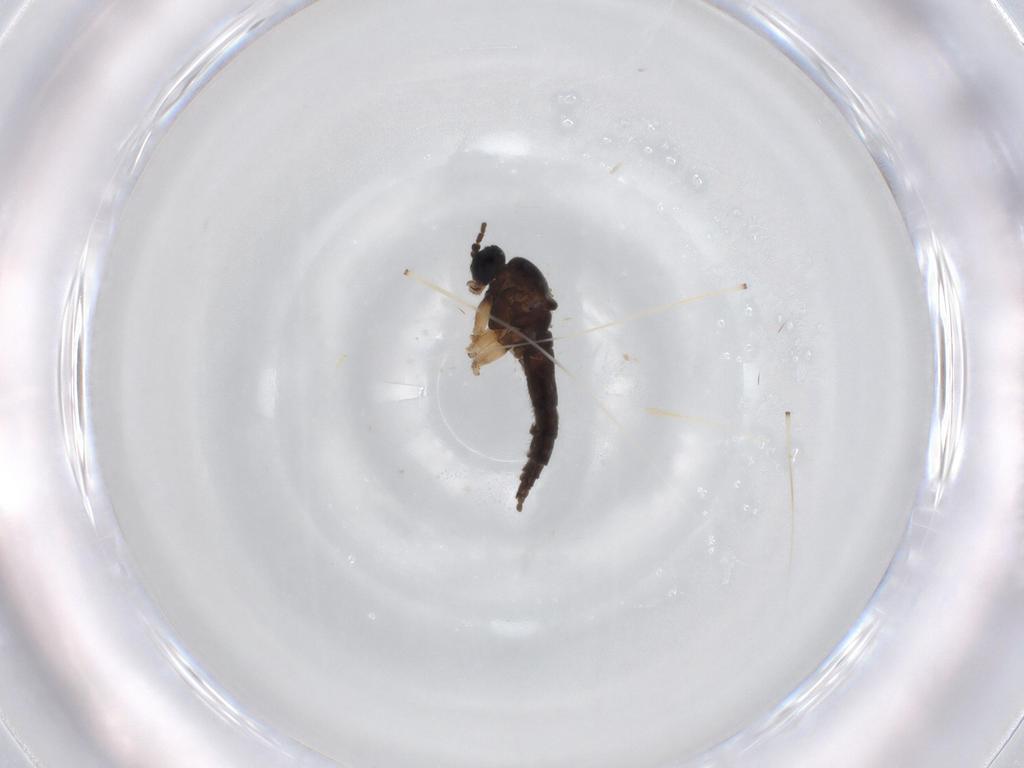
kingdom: Animalia
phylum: Arthropoda
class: Insecta
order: Diptera
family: Sciaridae
